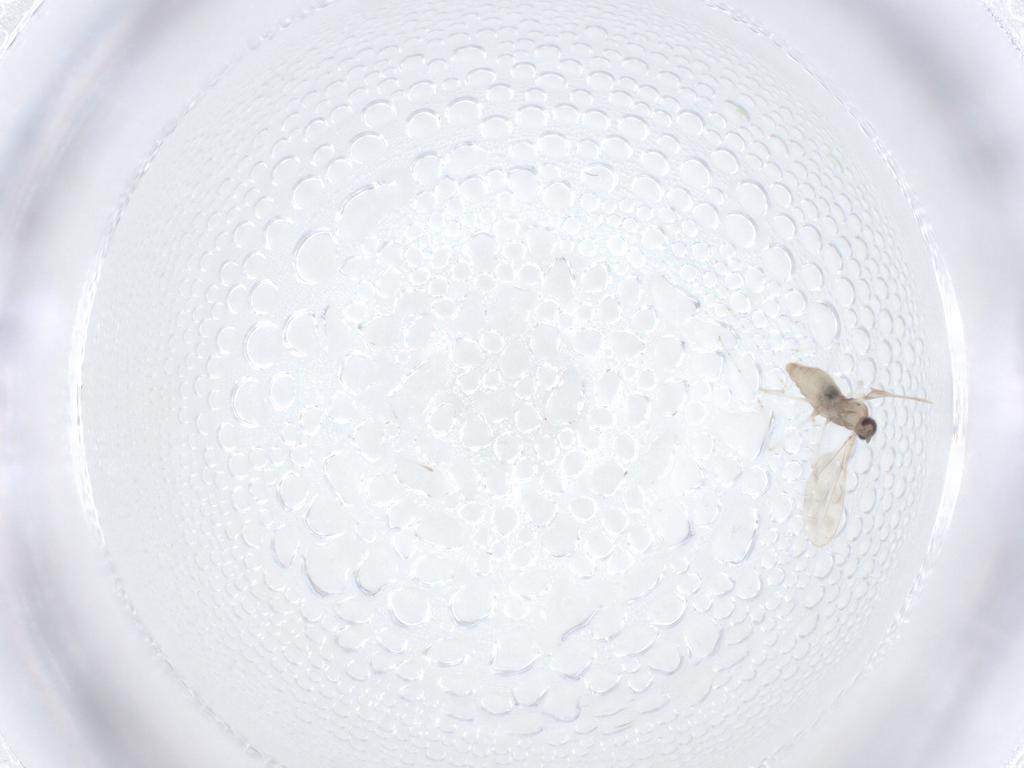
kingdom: Animalia
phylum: Arthropoda
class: Insecta
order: Diptera
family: Cecidomyiidae
